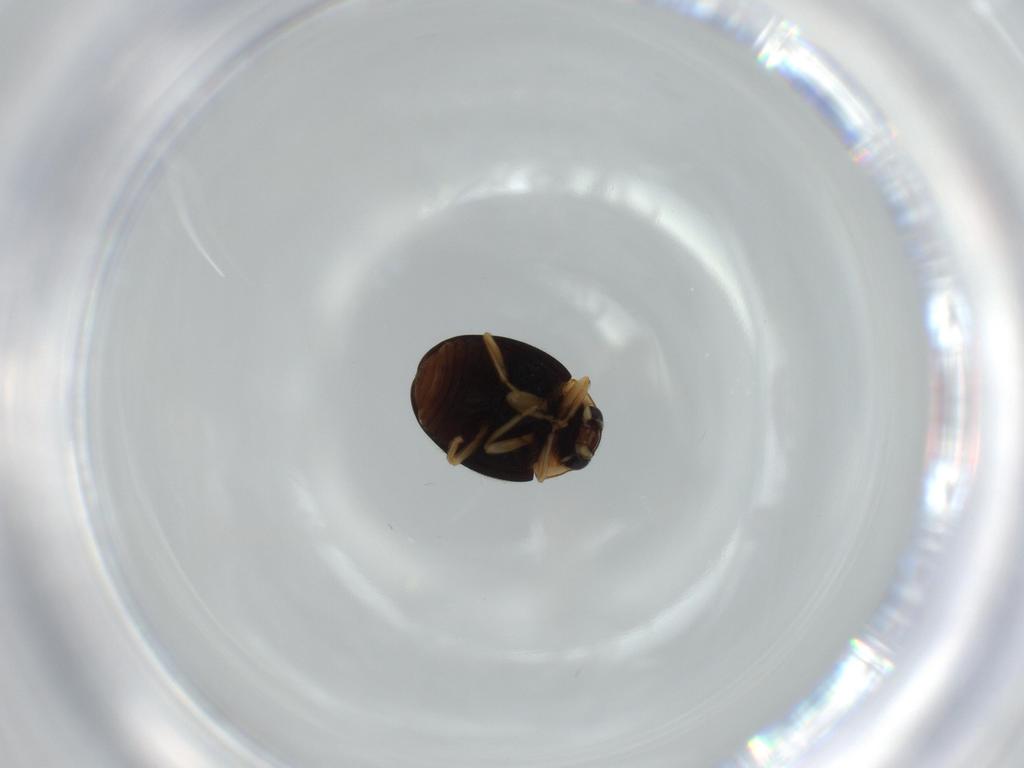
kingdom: Animalia
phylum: Arthropoda
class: Insecta
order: Coleoptera
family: Coccinellidae
